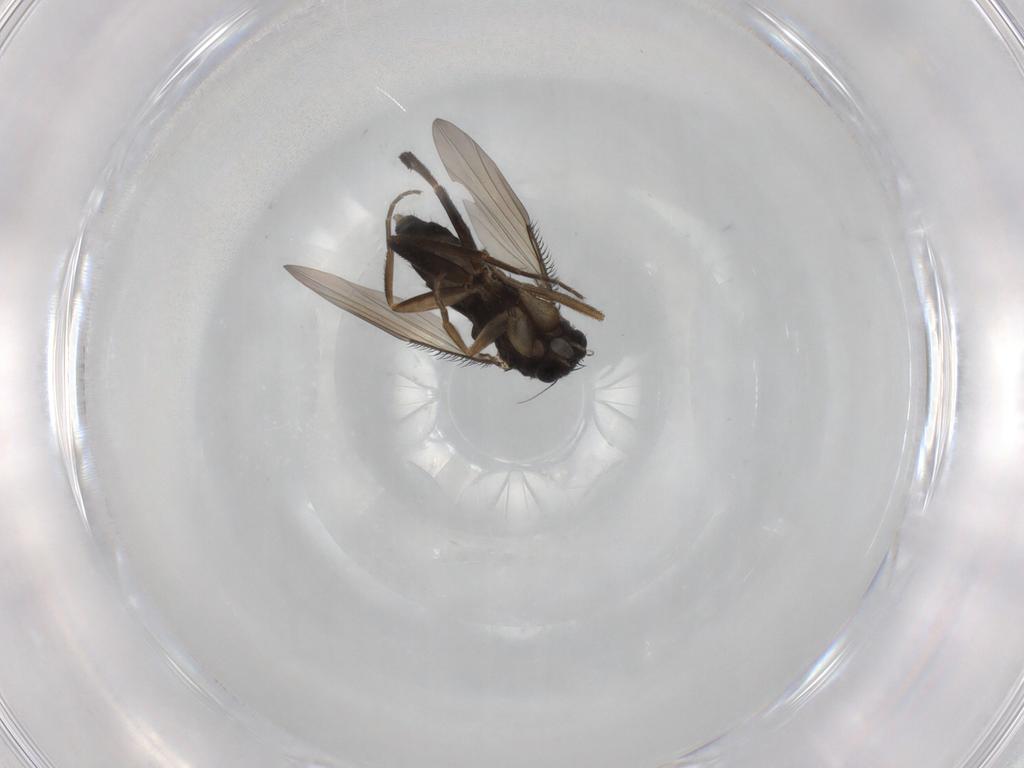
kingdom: Animalia
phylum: Arthropoda
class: Insecta
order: Diptera
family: Phoridae
